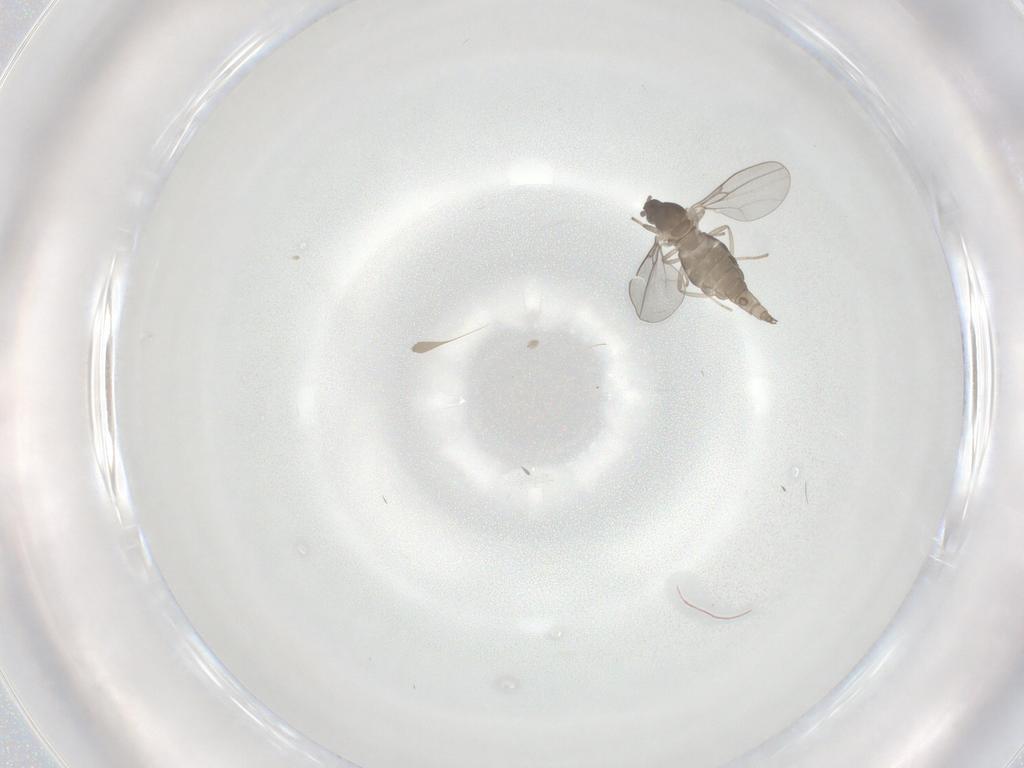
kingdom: Animalia
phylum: Arthropoda
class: Insecta
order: Diptera
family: Cecidomyiidae
